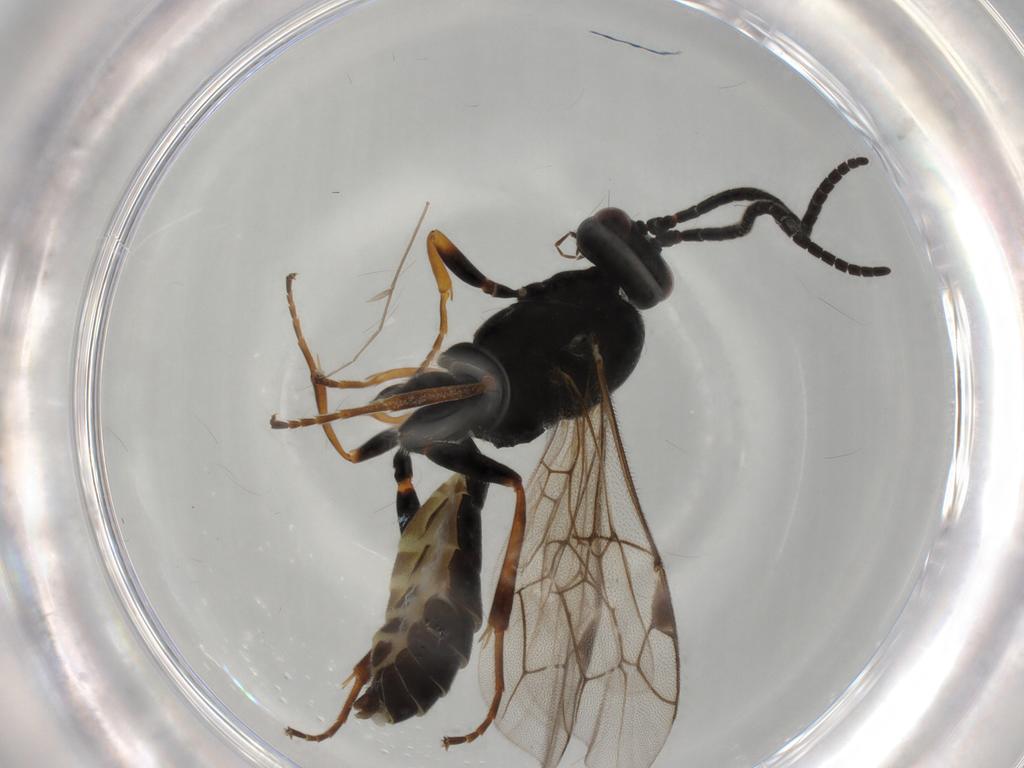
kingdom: Animalia
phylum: Arthropoda
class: Insecta
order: Hymenoptera
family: Ichneumonidae
